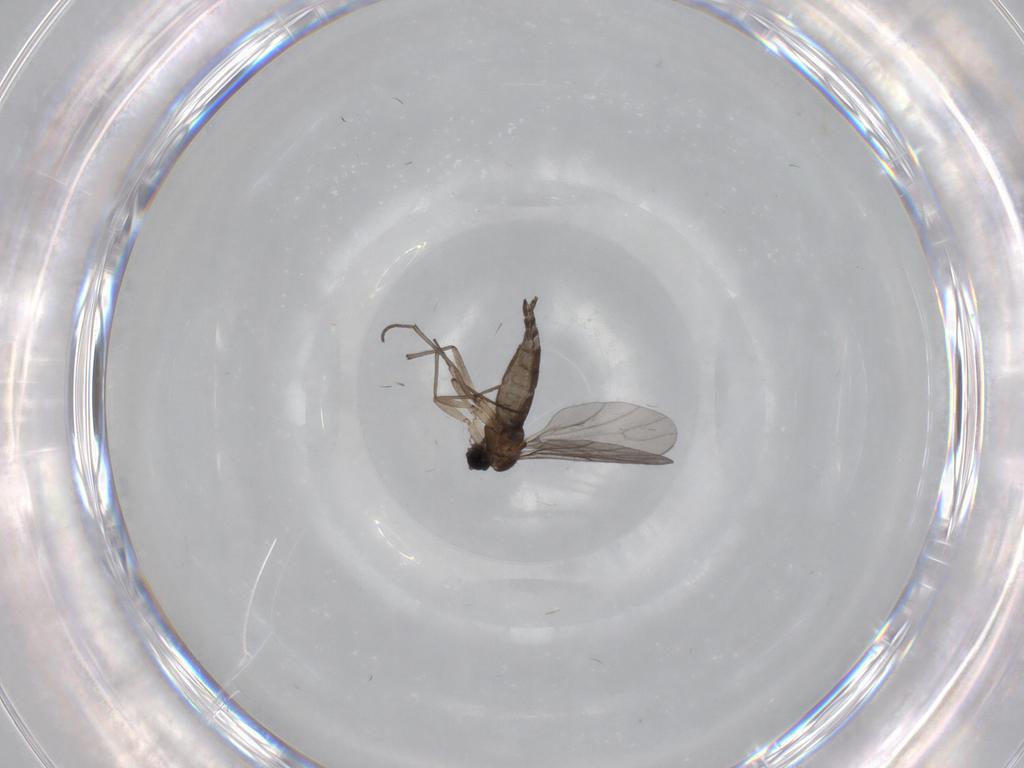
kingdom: Animalia
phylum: Arthropoda
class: Insecta
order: Diptera
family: Sciaridae
